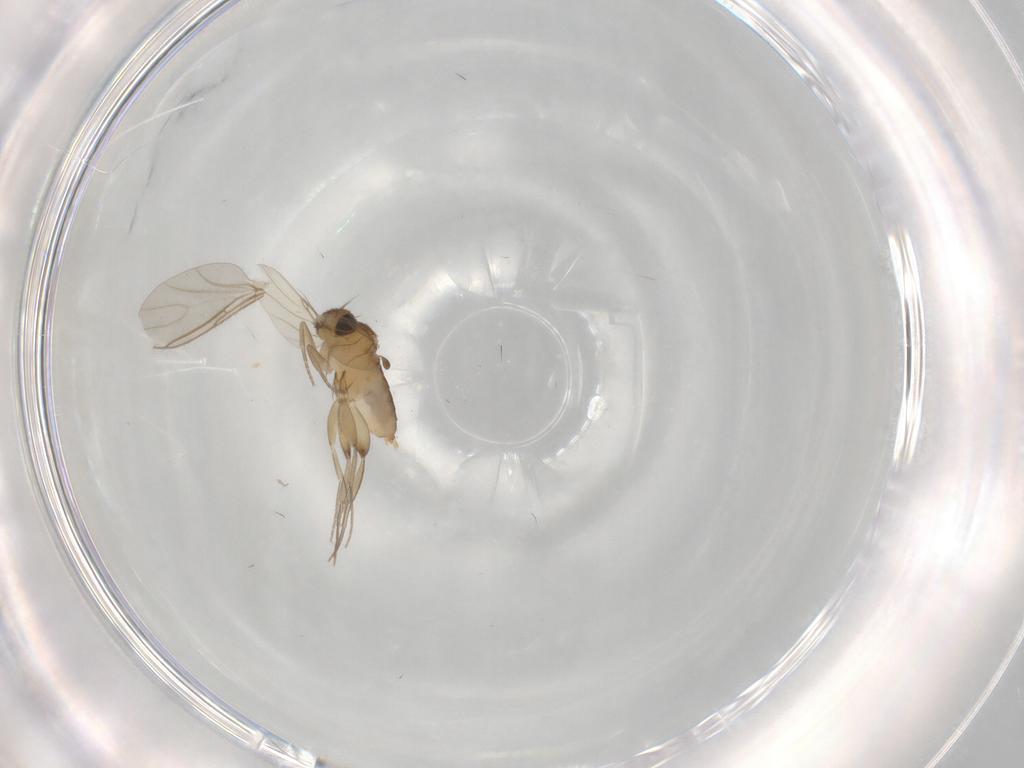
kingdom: Animalia
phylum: Arthropoda
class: Insecta
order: Diptera
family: Phoridae
